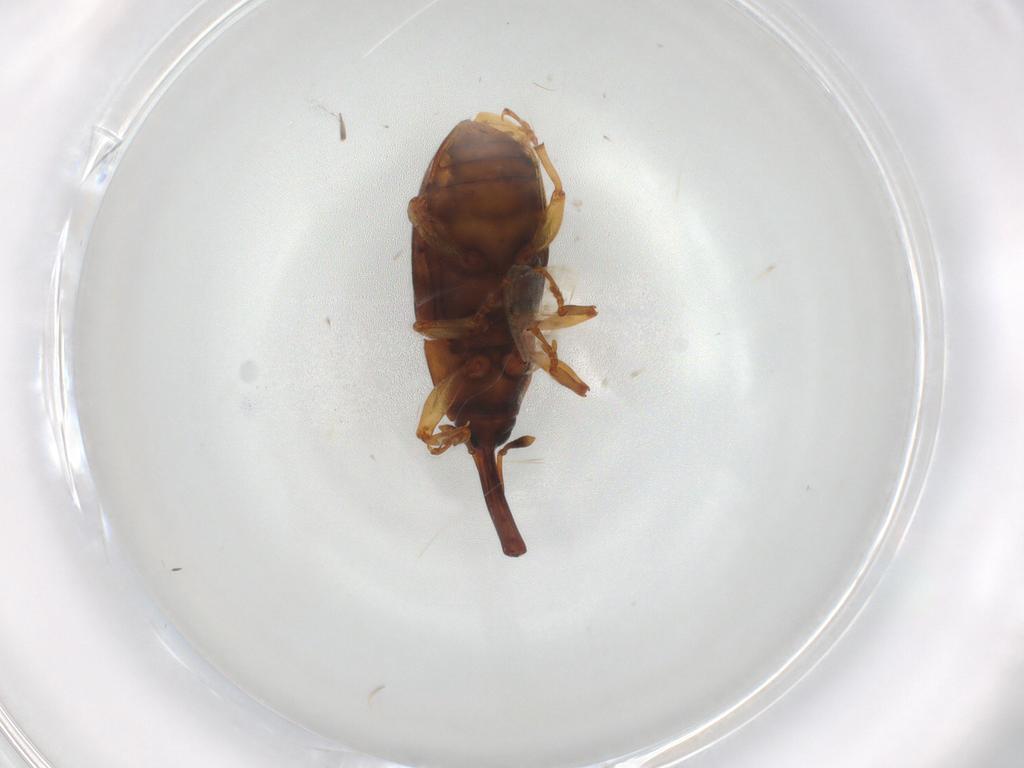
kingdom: Animalia
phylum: Arthropoda
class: Insecta
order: Coleoptera
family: Curculionidae
